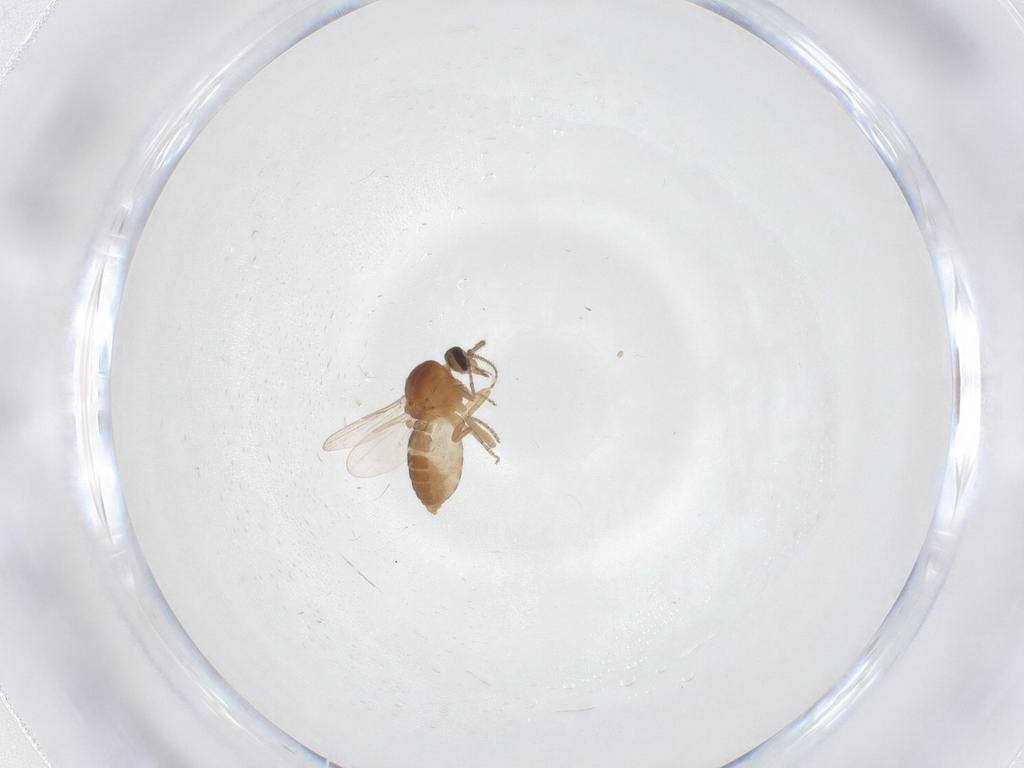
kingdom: Animalia
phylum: Arthropoda
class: Insecta
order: Diptera
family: Ceratopogonidae
